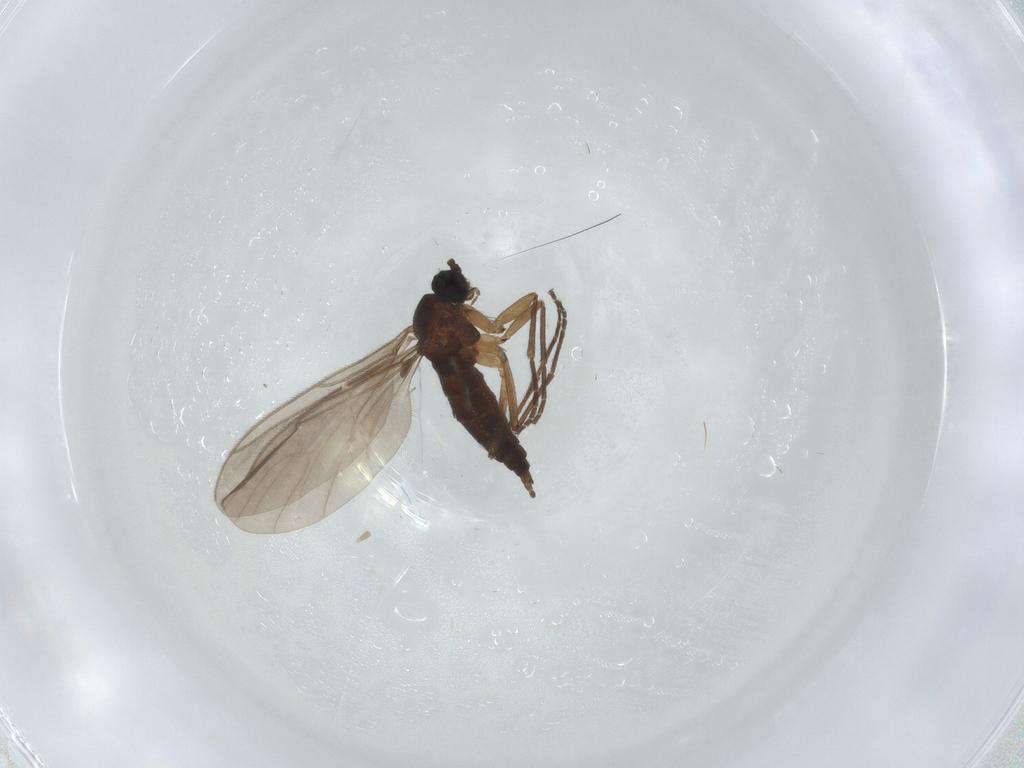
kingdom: Animalia
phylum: Arthropoda
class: Insecta
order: Diptera
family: Sciaridae
